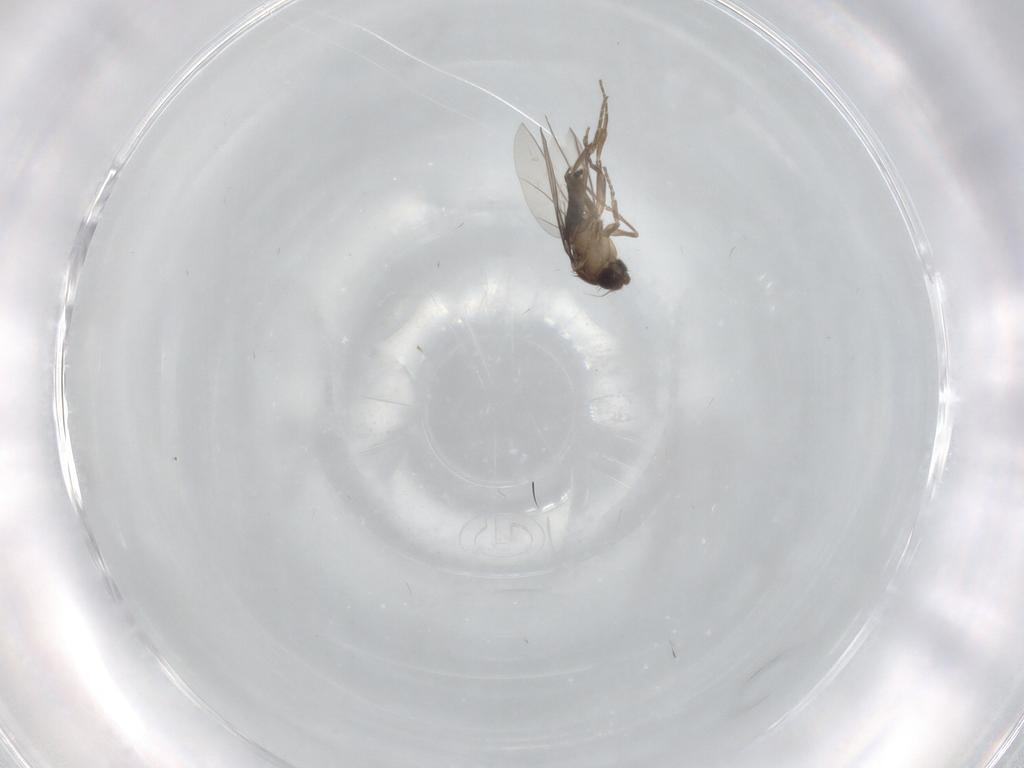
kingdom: Animalia
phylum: Arthropoda
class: Insecta
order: Diptera
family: Phoridae
